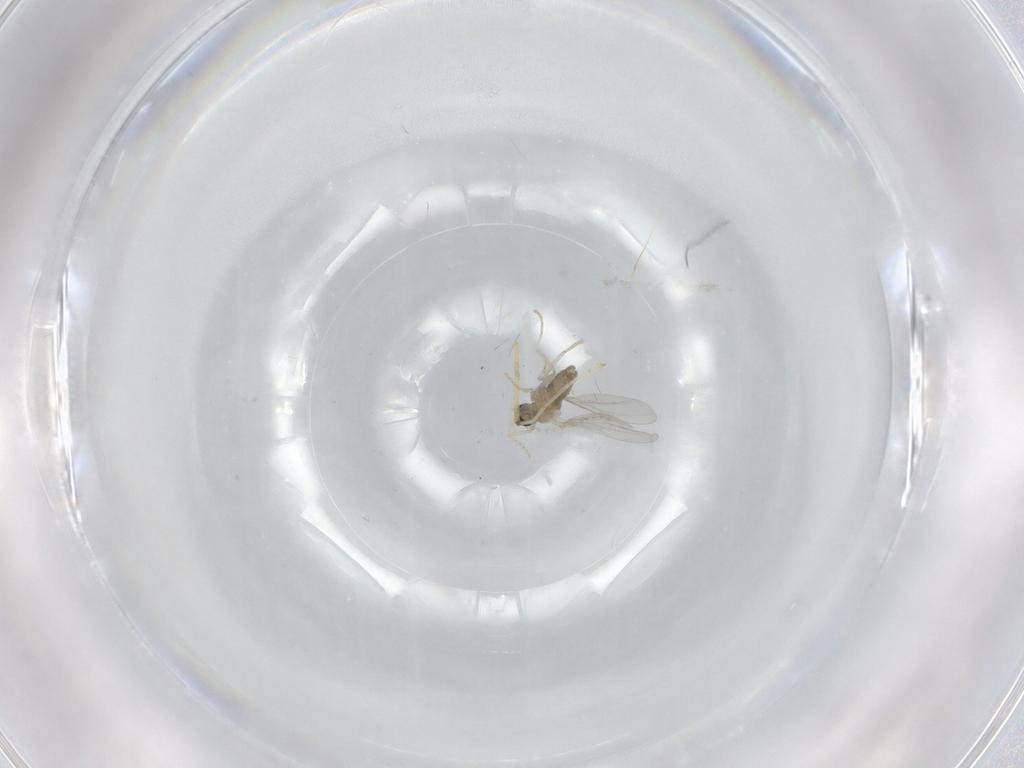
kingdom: Animalia
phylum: Arthropoda
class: Insecta
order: Diptera
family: Cecidomyiidae
